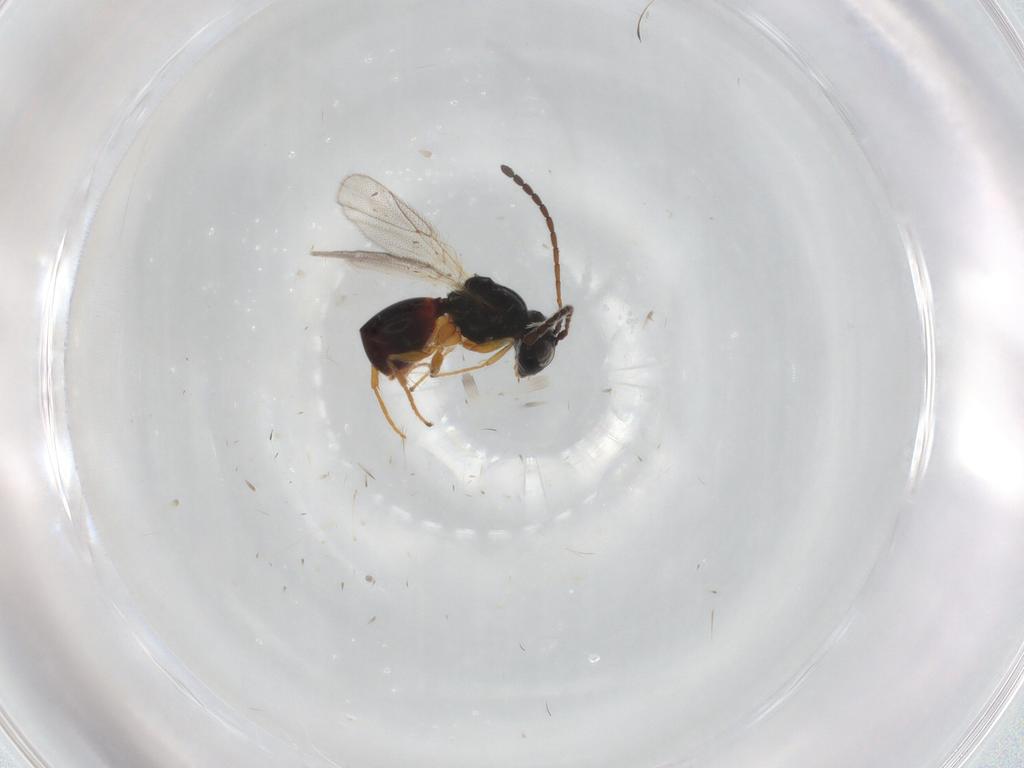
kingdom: Animalia
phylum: Arthropoda
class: Insecta
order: Hymenoptera
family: Figitidae
